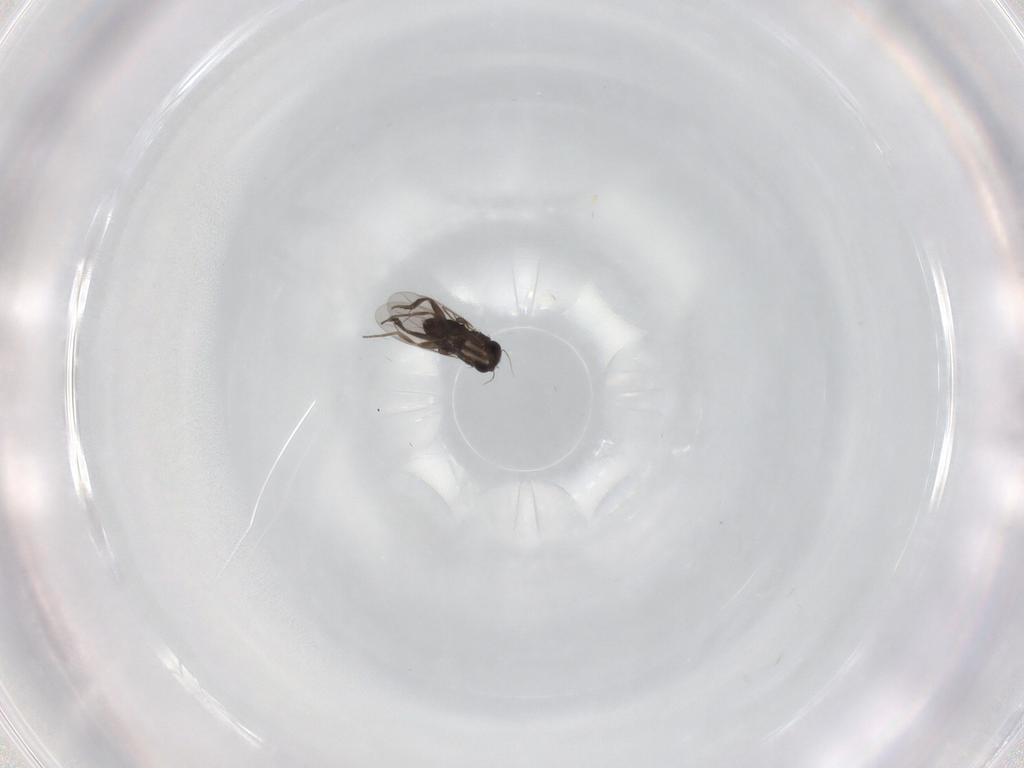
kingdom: Animalia
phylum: Arthropoda
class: Insecta
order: Diptera
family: Phoridae
